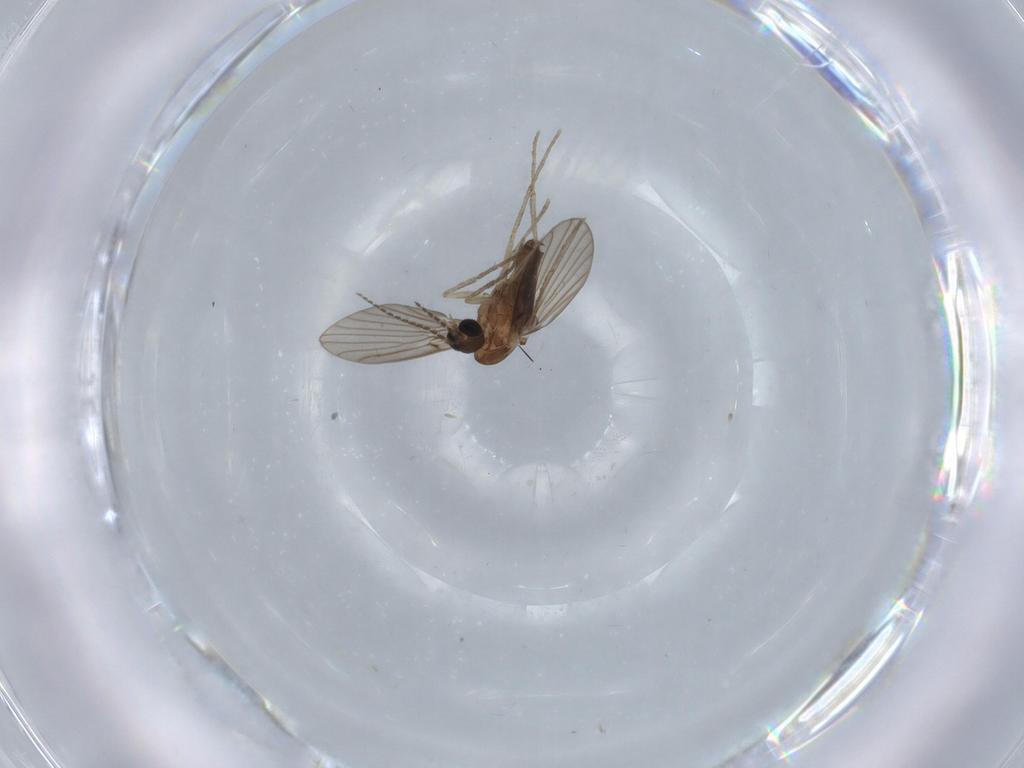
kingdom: Animalia
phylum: Arthropoda
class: Insecta
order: Diptera
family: Psychodidae
